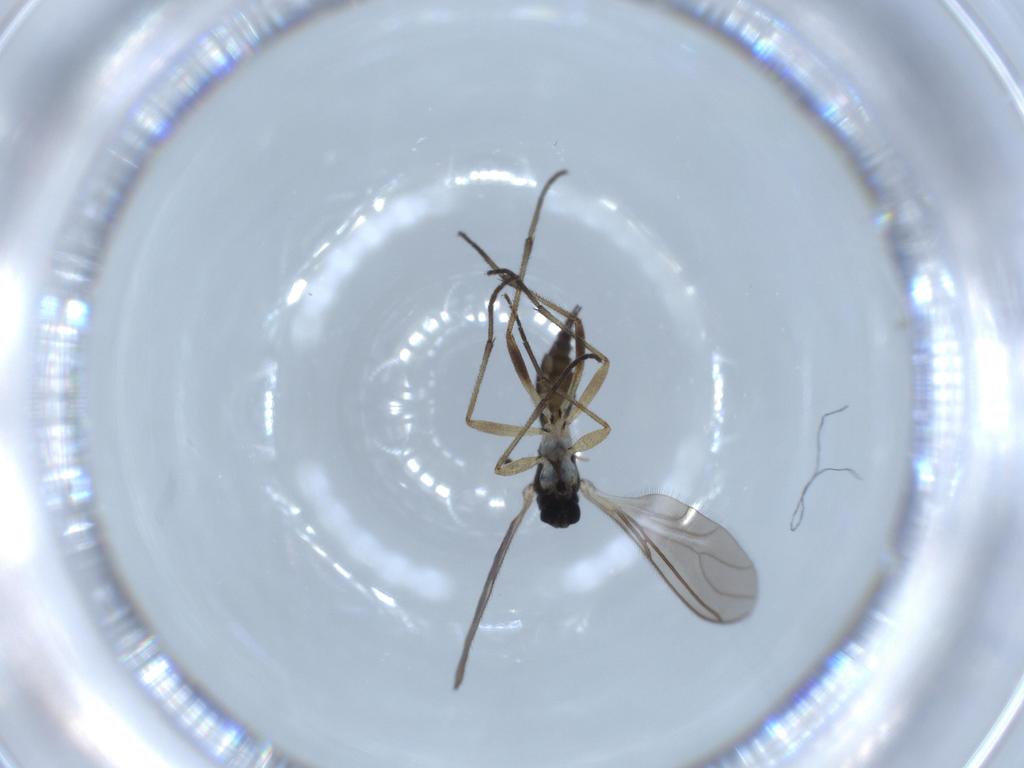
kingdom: Animalia
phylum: Arthropoda
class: Insecta
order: Diptera
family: Sciaridae
